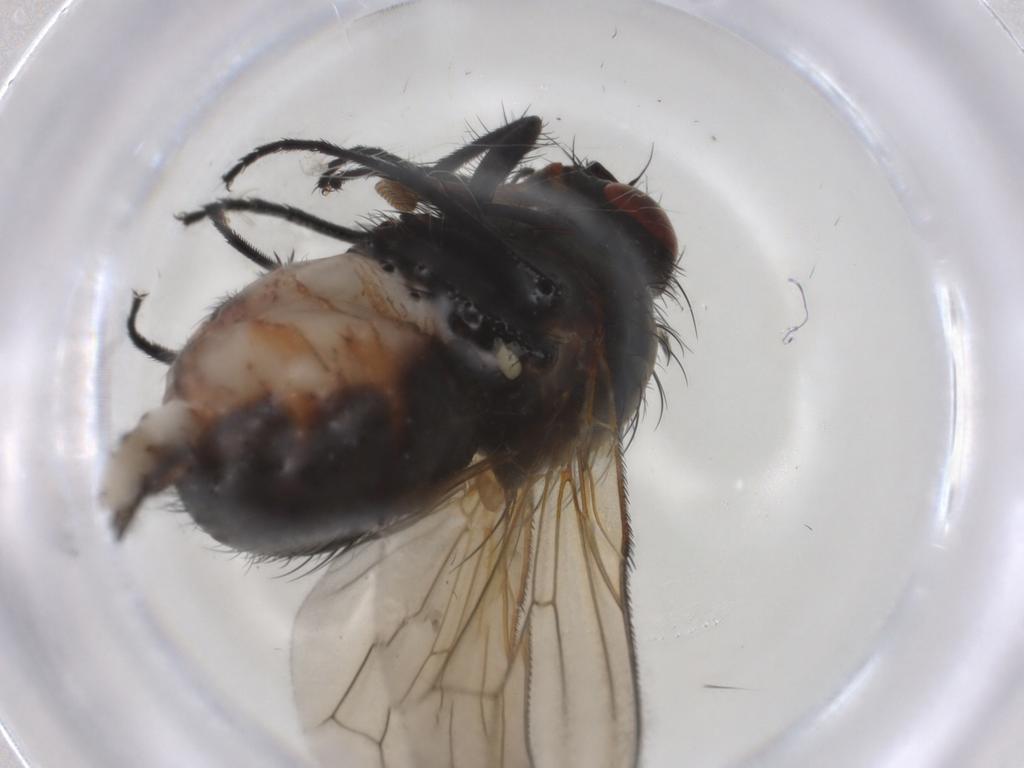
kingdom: Animalia
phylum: Arthropoda
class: Insecta
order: Diptera
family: Anthomyiidae
